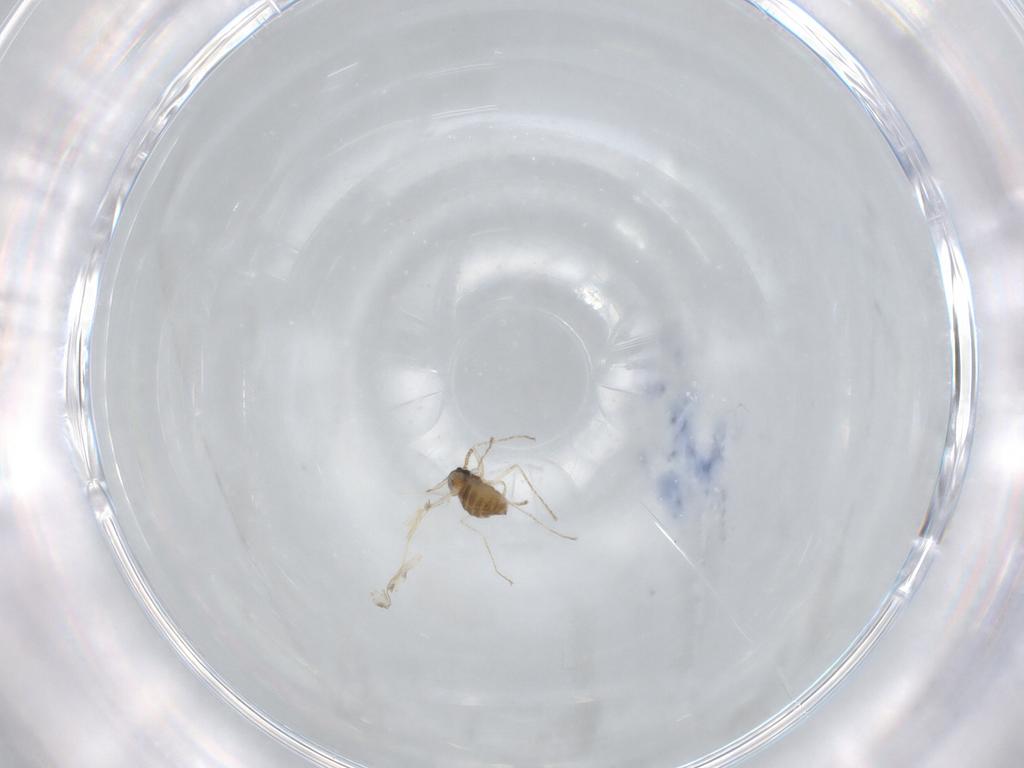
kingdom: Animalia
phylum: Arthropoda
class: Insecta
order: Diptera
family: Cecidomyiidae
